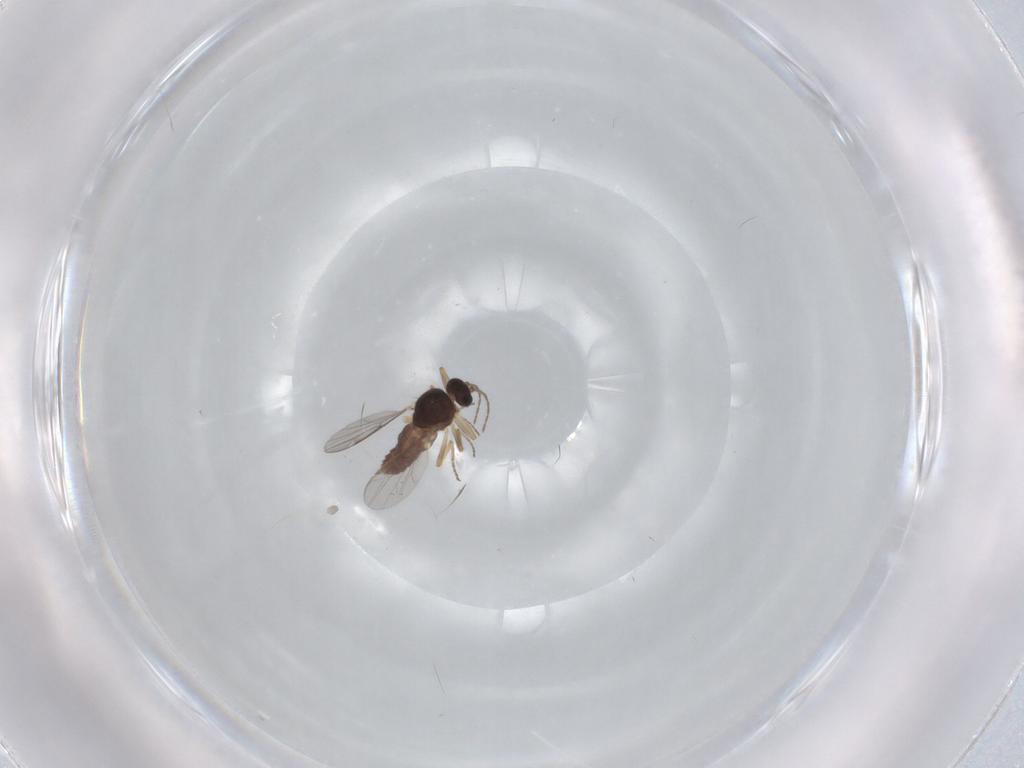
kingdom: Animalia
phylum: Arthropoda
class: Insecta
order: Diptera
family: Ceratopogonidae
